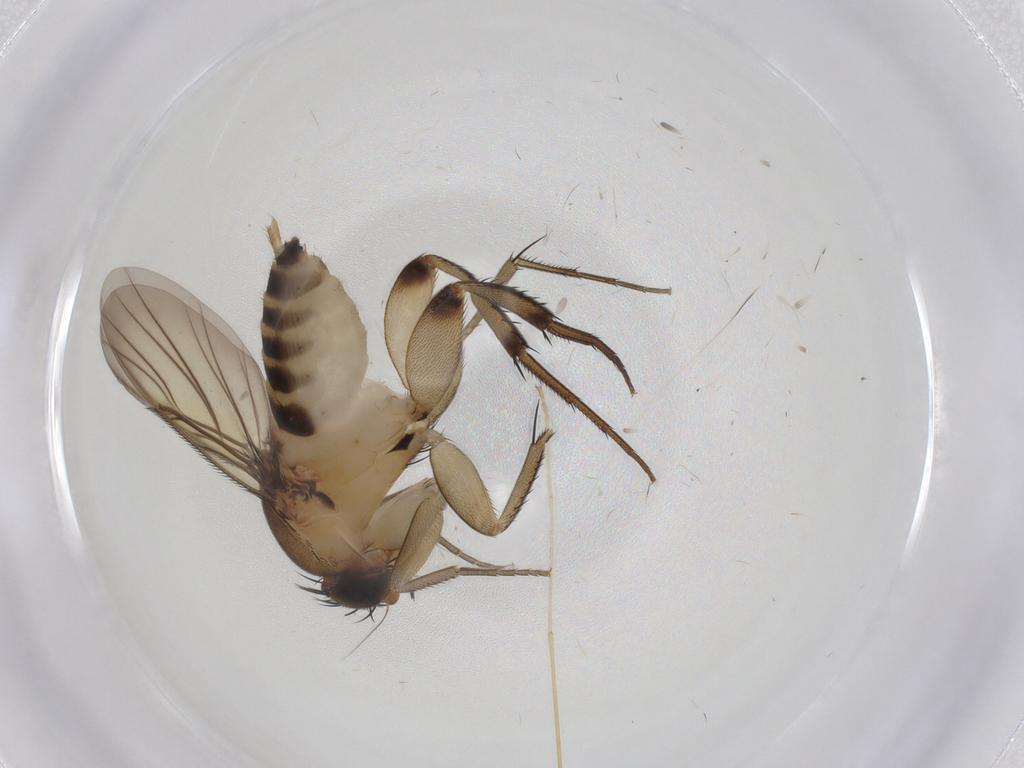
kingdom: Animalia
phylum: Arthropoda
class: Insecta
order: Diptera
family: Phoridae
